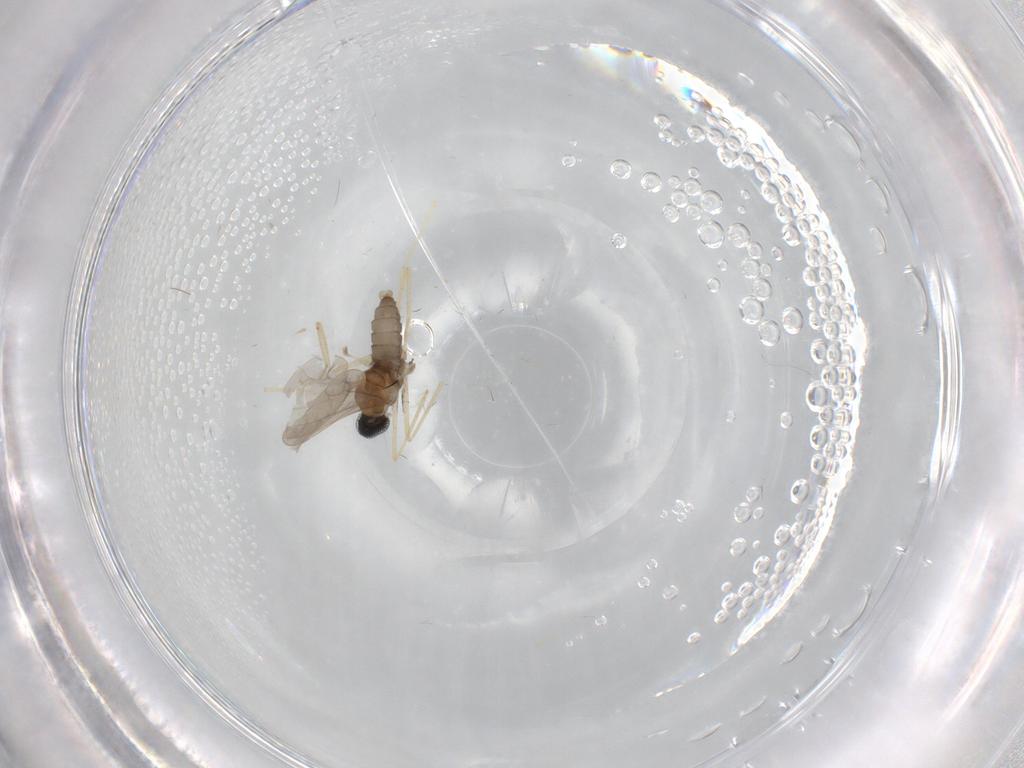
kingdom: Animalia
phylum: Arthropoda
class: Insecta
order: Diptera
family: Cecidomyiidae
